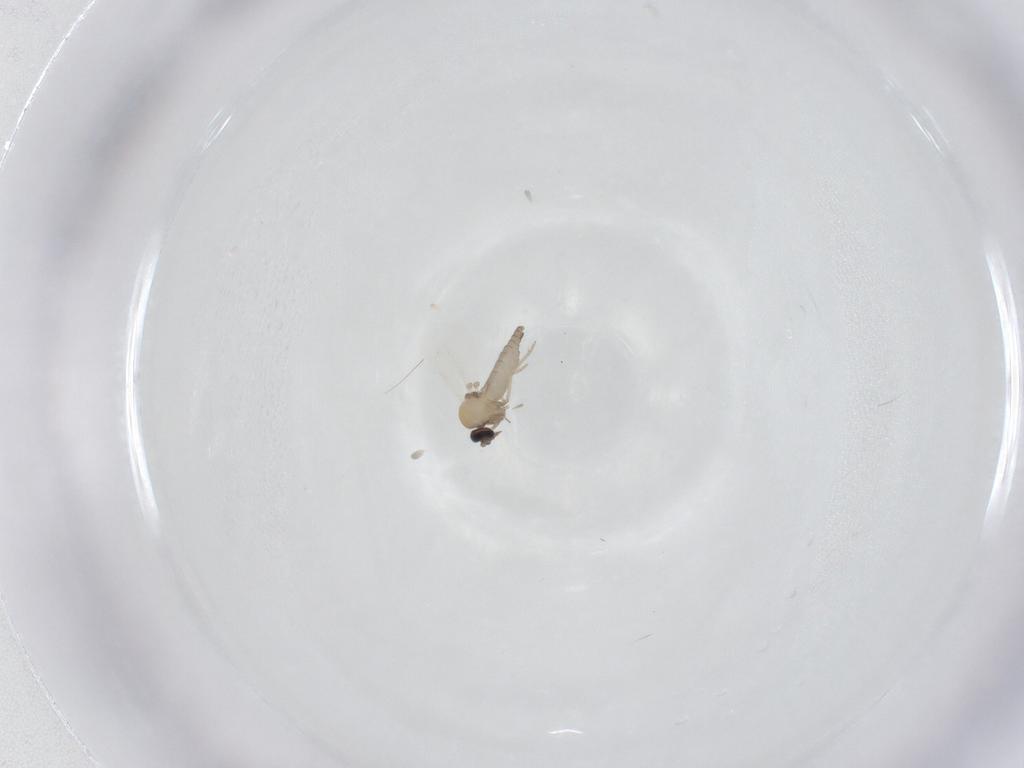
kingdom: Animalia
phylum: Arthropoda
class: Insecta
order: Diptera
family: Ceratopogonidae
